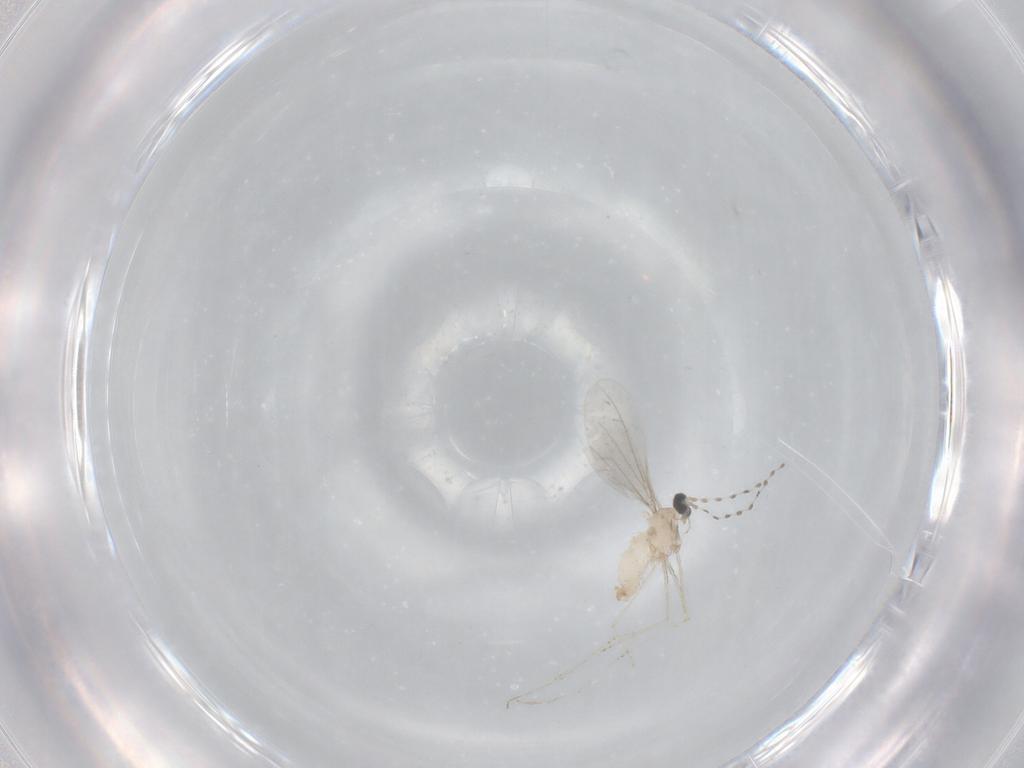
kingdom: Animalia
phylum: Arthropoda
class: Insecta
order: Diptera
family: Cecidomyiidae
